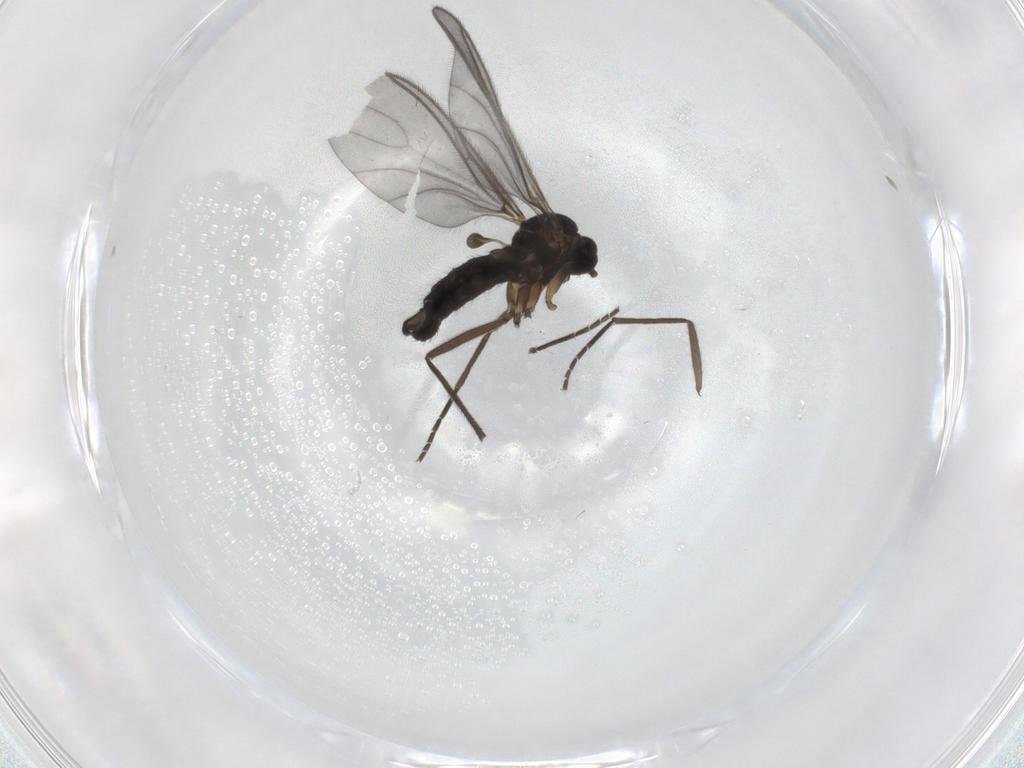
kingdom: Animalia
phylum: Arthropoda
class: Insecta
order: Diptera
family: Sciaridae
